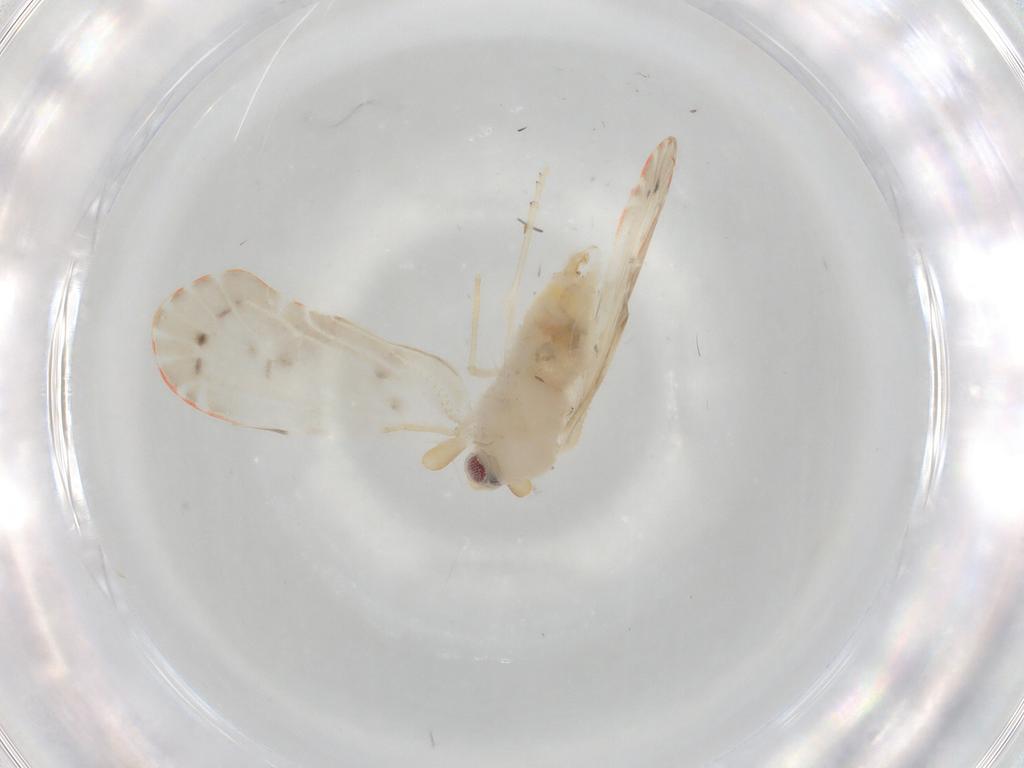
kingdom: Animalia
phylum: Arthropoda
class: Insecta
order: Hemiptera
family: Derbidae
